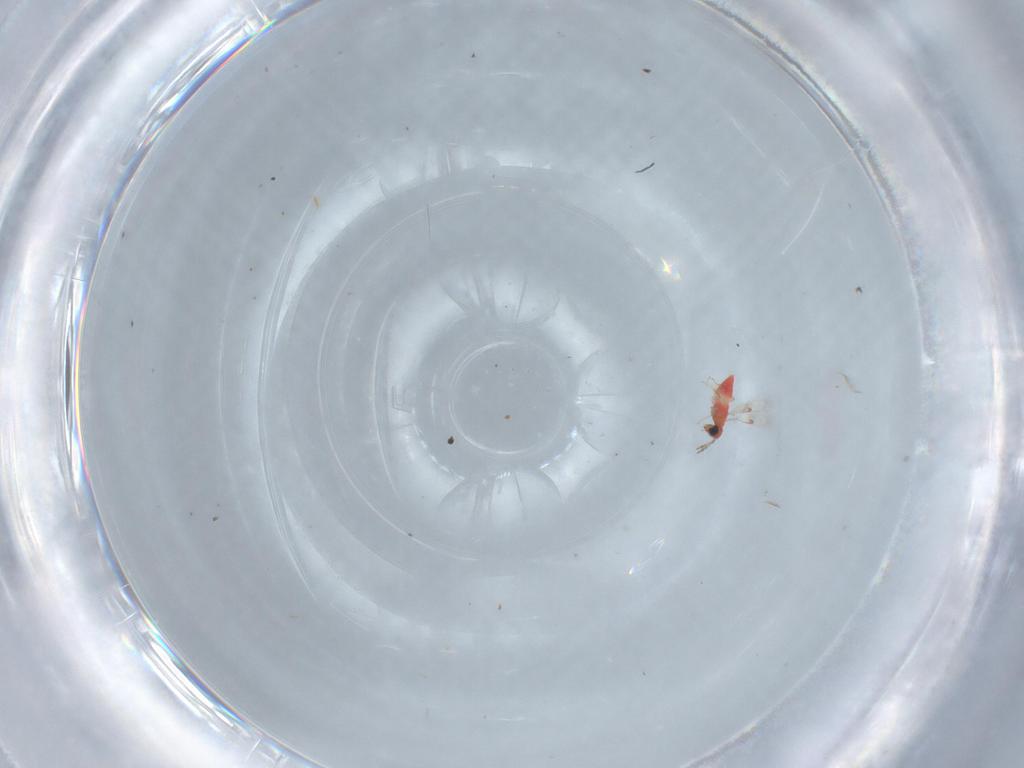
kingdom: Animalia
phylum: Arthropoda
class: Insecta
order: Hymenoptera
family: Trichogrammatidae
